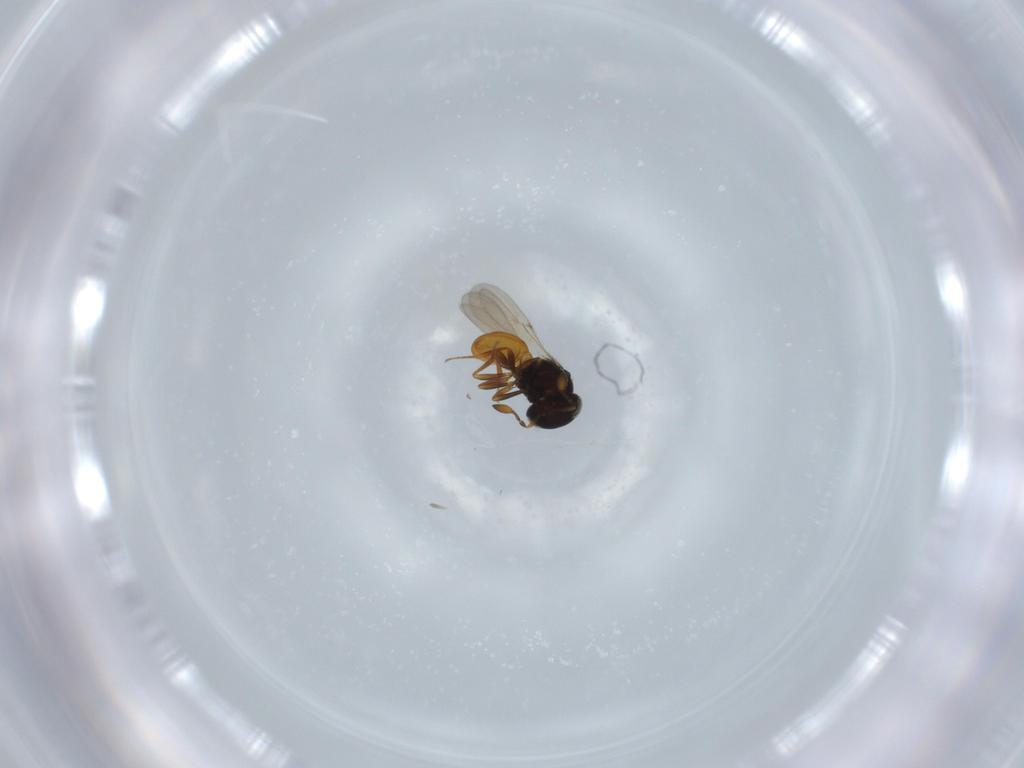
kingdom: Animalia
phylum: Arthropoda
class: Insecta
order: Hymenoptera
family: Scelionidae
